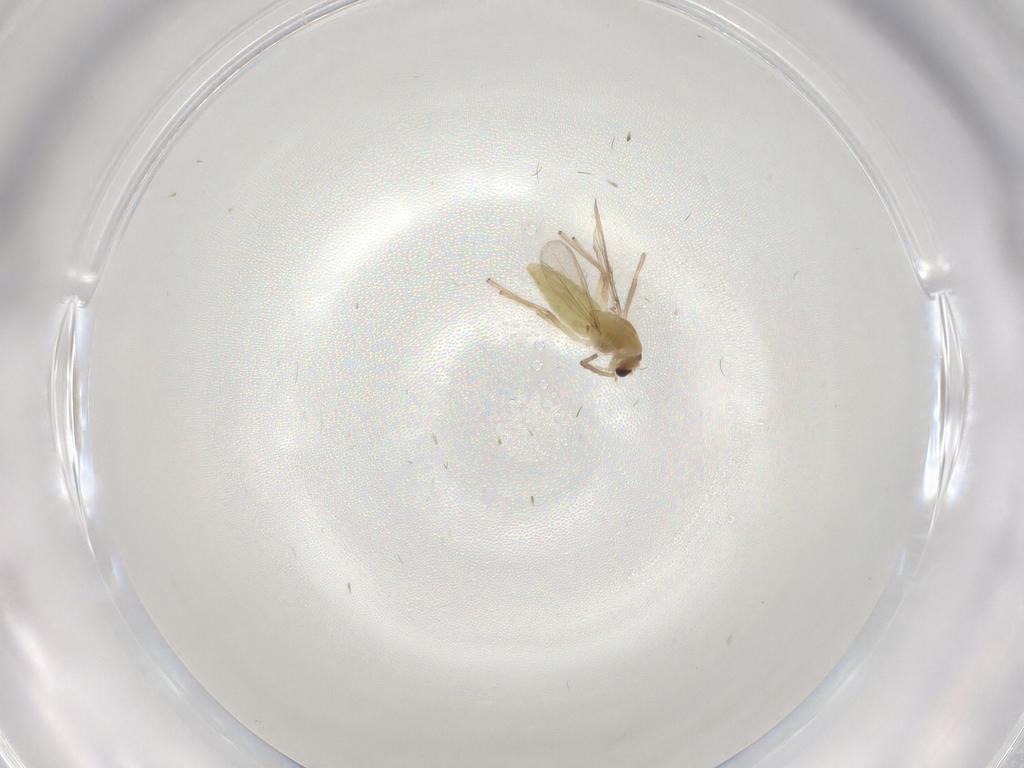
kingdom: Animalia
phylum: Arthropoda
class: Insecta
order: Diptera
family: Chironomidae
